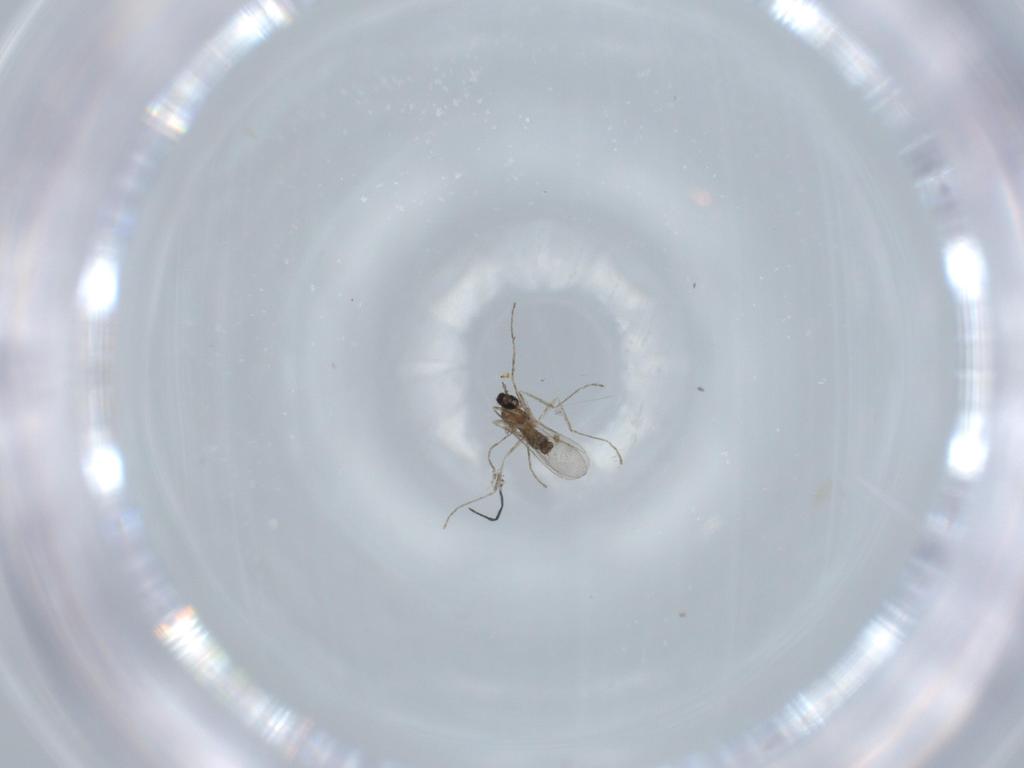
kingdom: Animalia
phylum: Arthropoda
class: Insecta
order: Diptera
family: Cecidomyiidae
